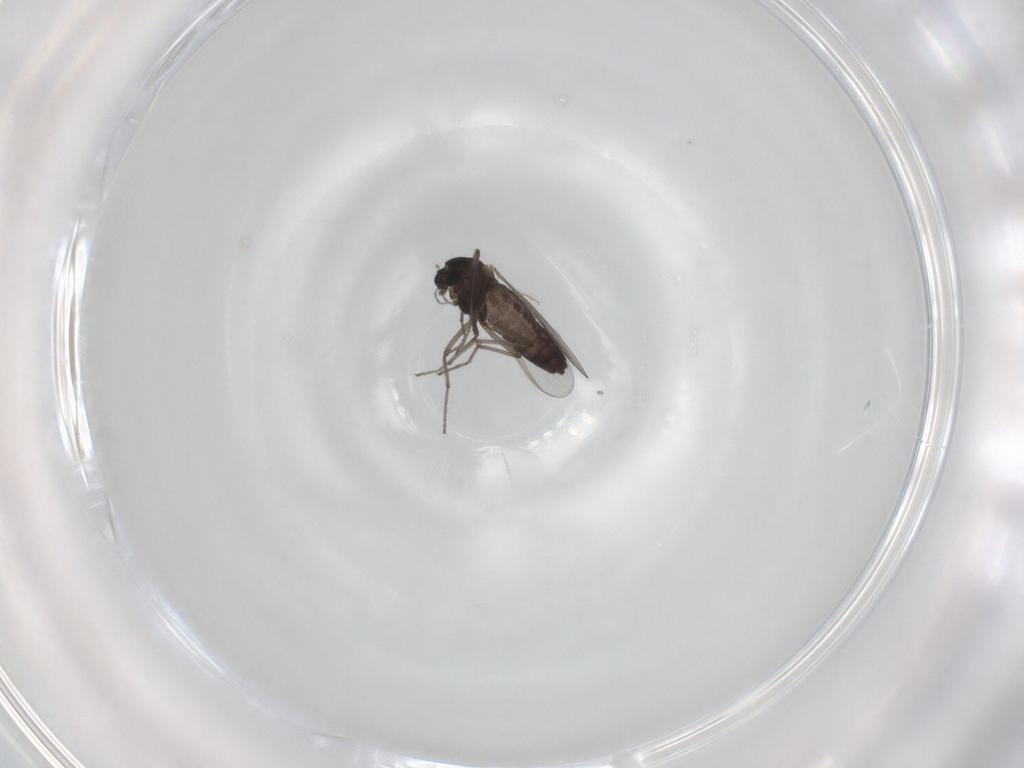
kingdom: Animalia
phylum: Arthropoda
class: Insecta
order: Diptera
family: Chironomidae
